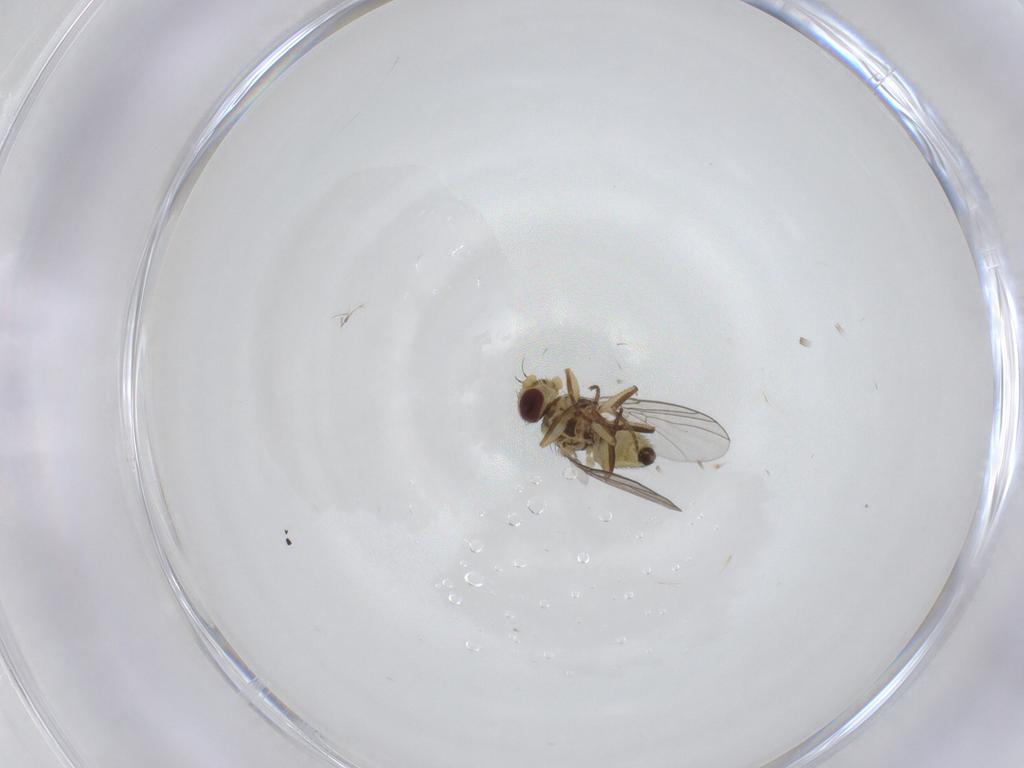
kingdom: Animalia
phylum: Arthropoda
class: Insecta
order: Diptera
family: Agromyzidae
